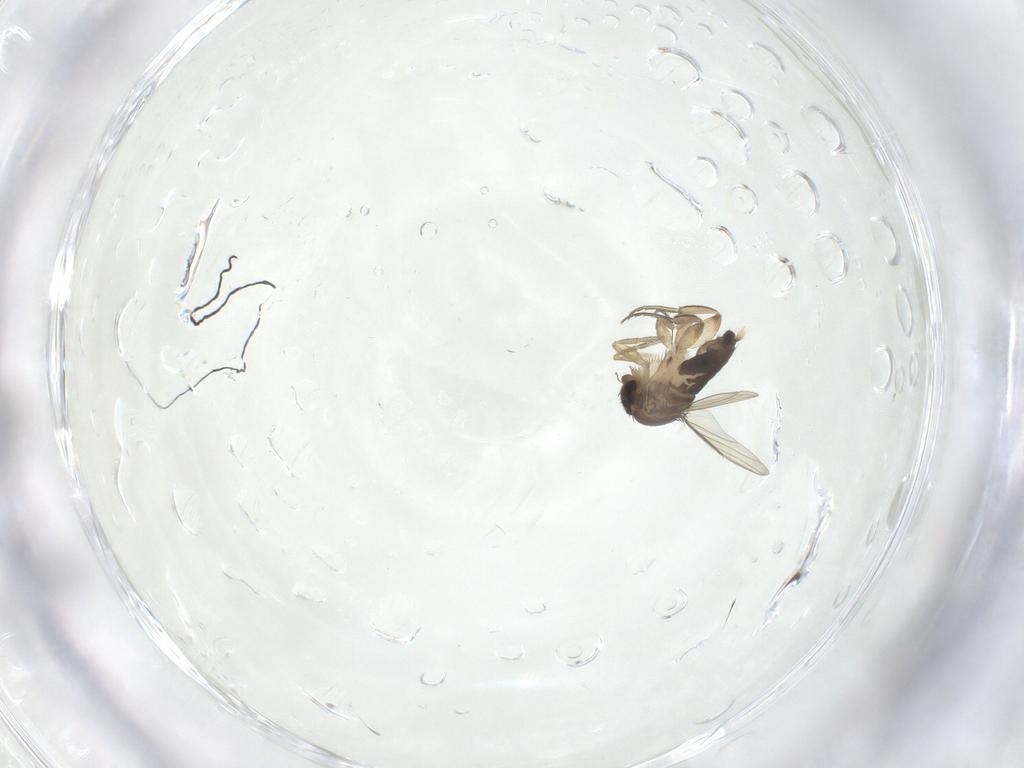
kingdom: Animalia
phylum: Arthropoda
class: Insecta
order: Diptera
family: Phoridae
